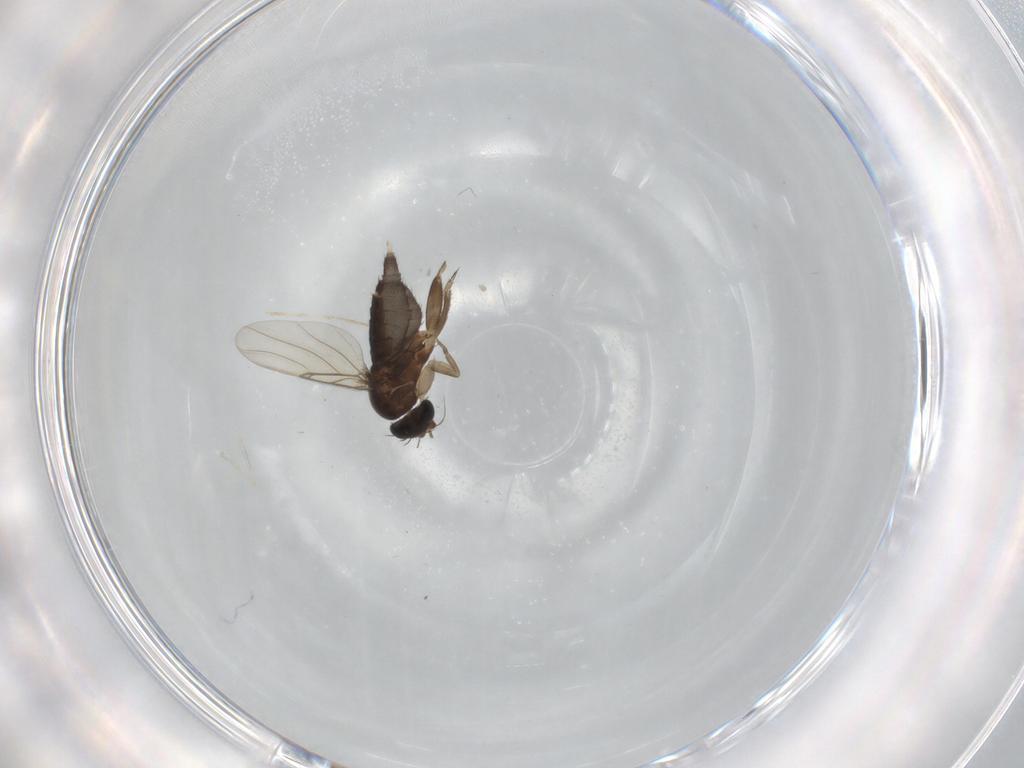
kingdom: Animalia
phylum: Arthropoda
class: Insecta
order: Diptera
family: Phoridae
